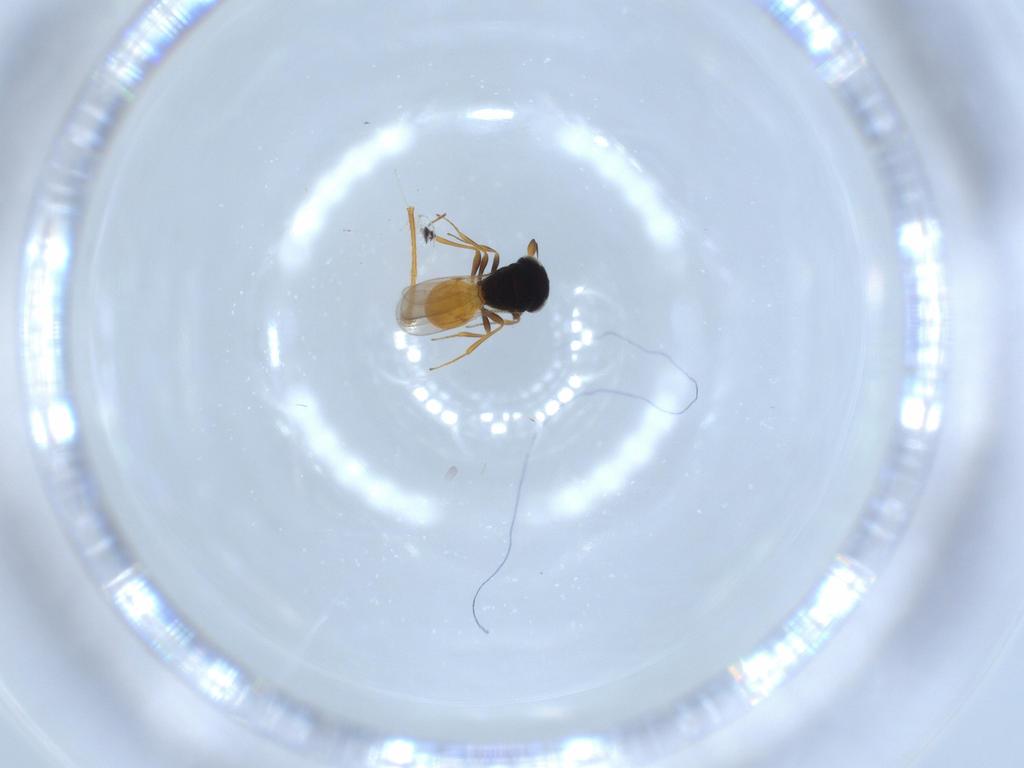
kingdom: Animalia
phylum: Arthropoda
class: Insecta
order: Hymenoptera
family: Scelionidae
